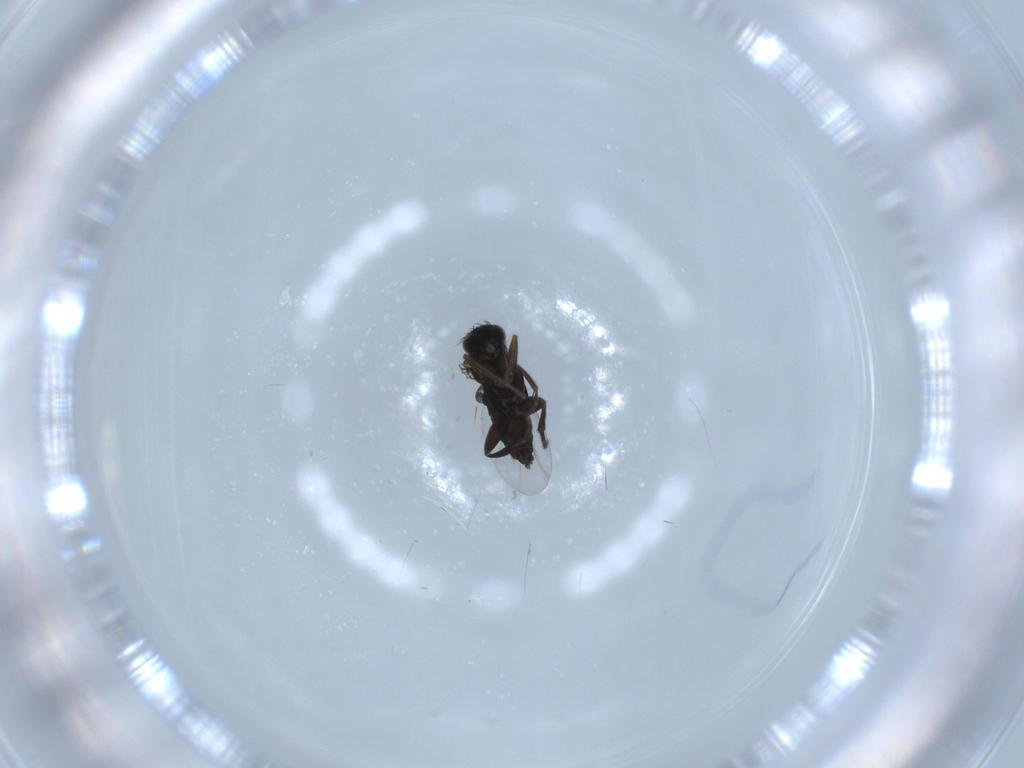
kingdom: Animalia
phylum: Arthropoda
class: Insecta
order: Diptera
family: Phoridae
